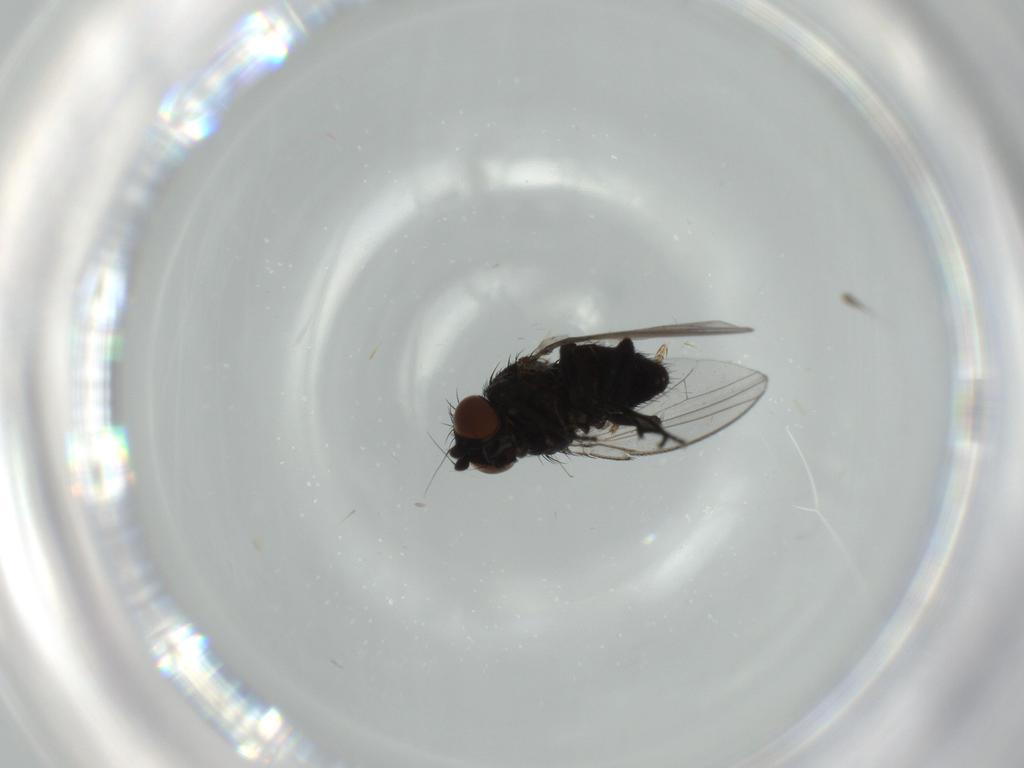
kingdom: Animalia
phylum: Arthropoda
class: Insecta
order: Diptera
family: Milichiidae
